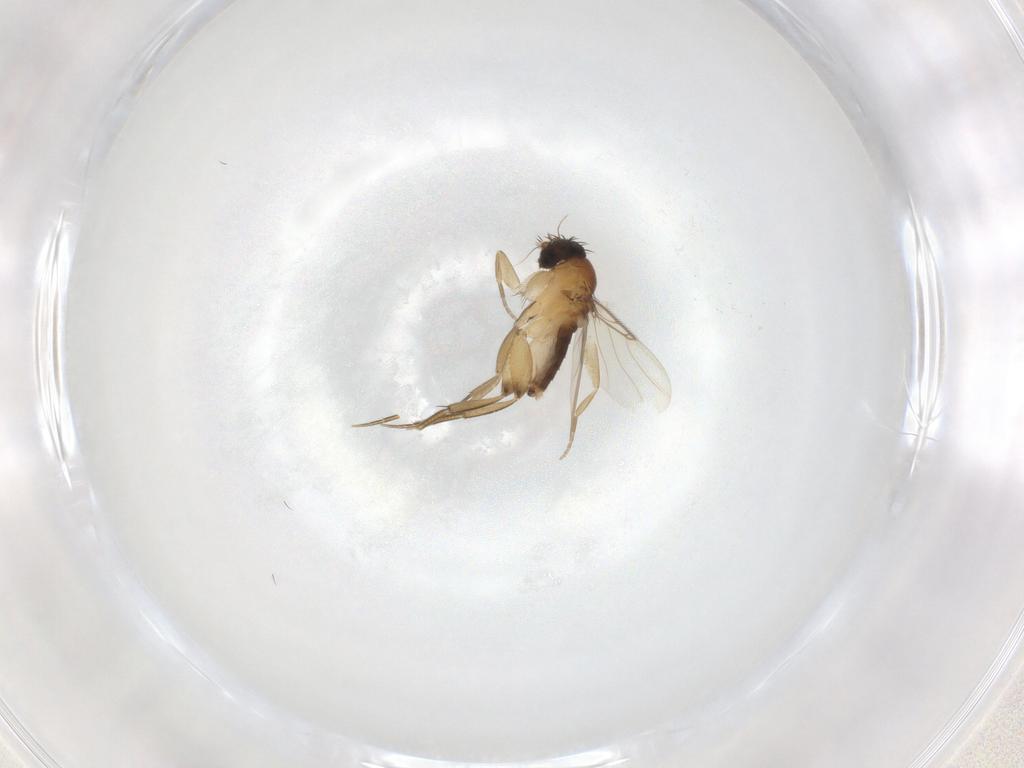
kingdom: Animalia
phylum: Arthropoda
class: Insecta
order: Diptera
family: Phoridae
